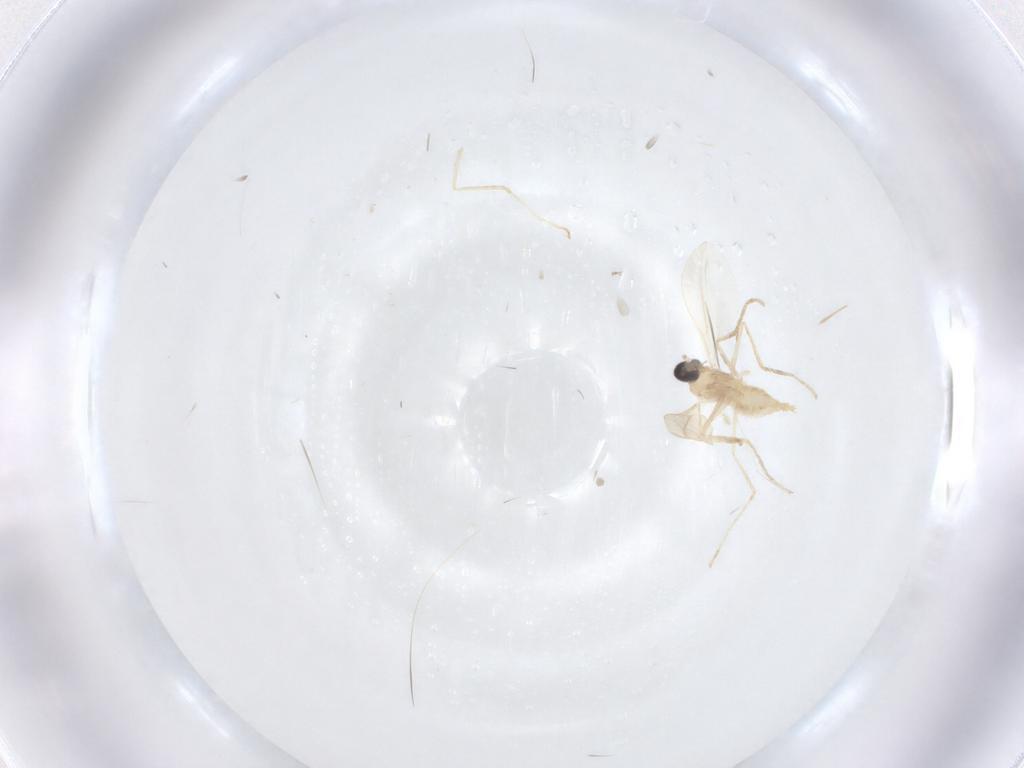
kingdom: Animalia
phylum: Arthropoda
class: Insecta
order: Diptera
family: Cecidomyiidae
